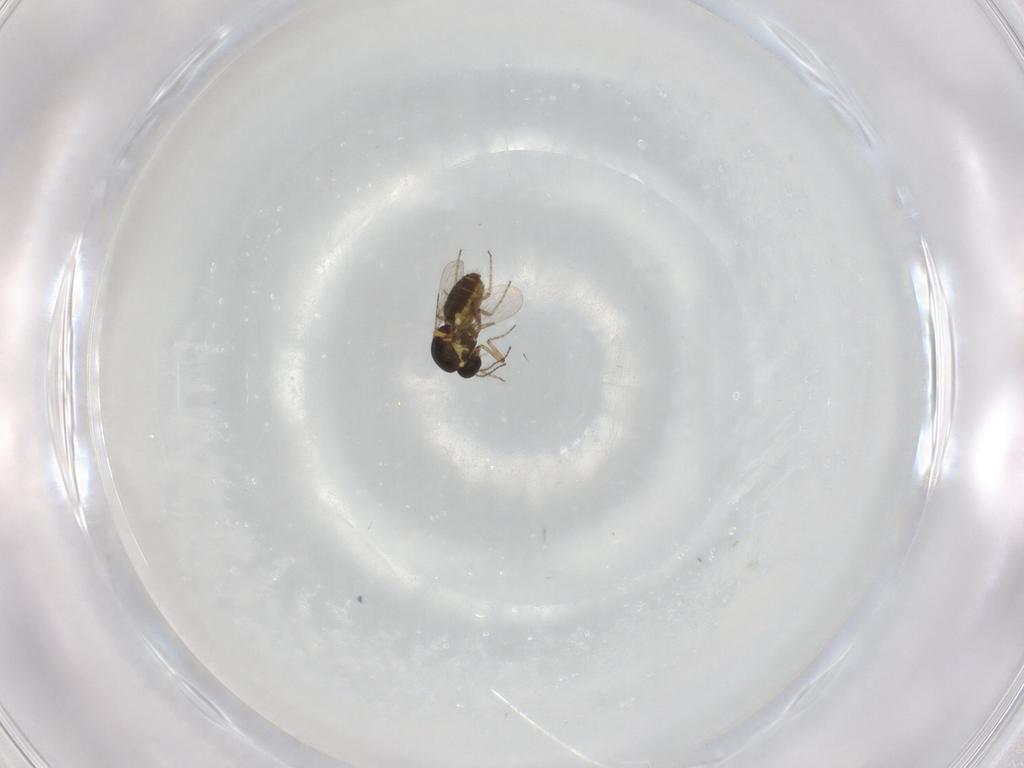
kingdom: Animalia
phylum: Arthropoda
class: Insecta
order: Diptera
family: Ceratopogonidae
